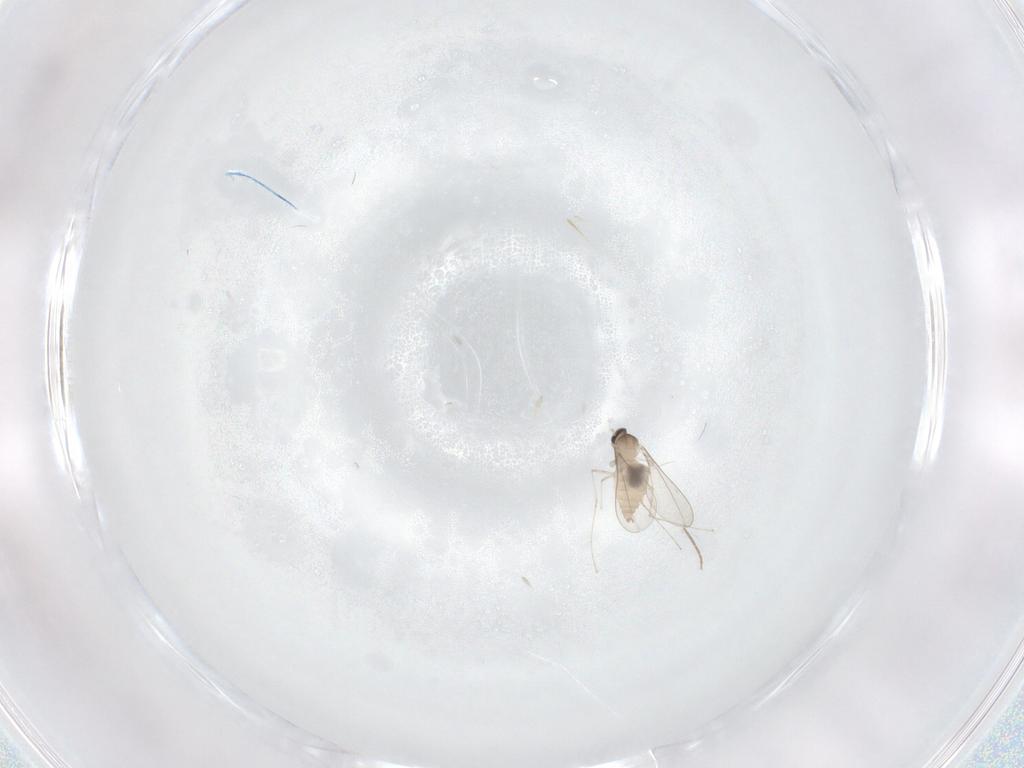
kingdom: Animalia
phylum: Arthropoda
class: Insecta
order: Diptera
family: Cecidomyiidae
